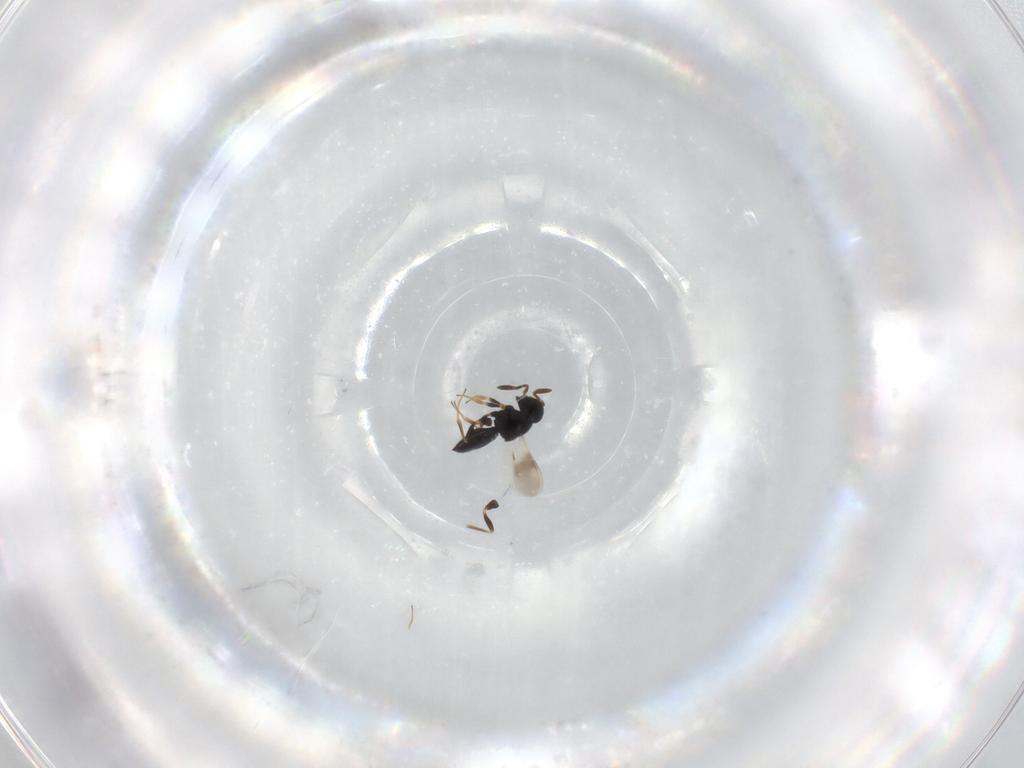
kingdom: Animalia
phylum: Arthropoda
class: Insecta
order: Hymenoptera
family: Scelionidae
